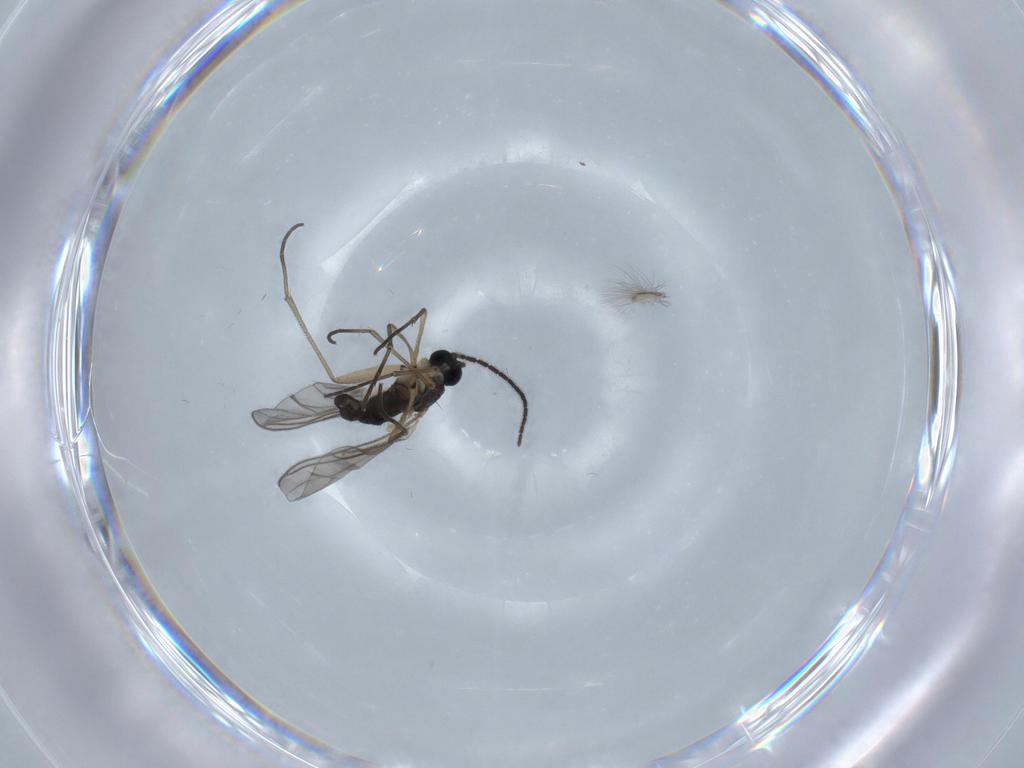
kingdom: Animalia
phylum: Arthropoda
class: Insecta
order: Diptera
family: Sciaridae
